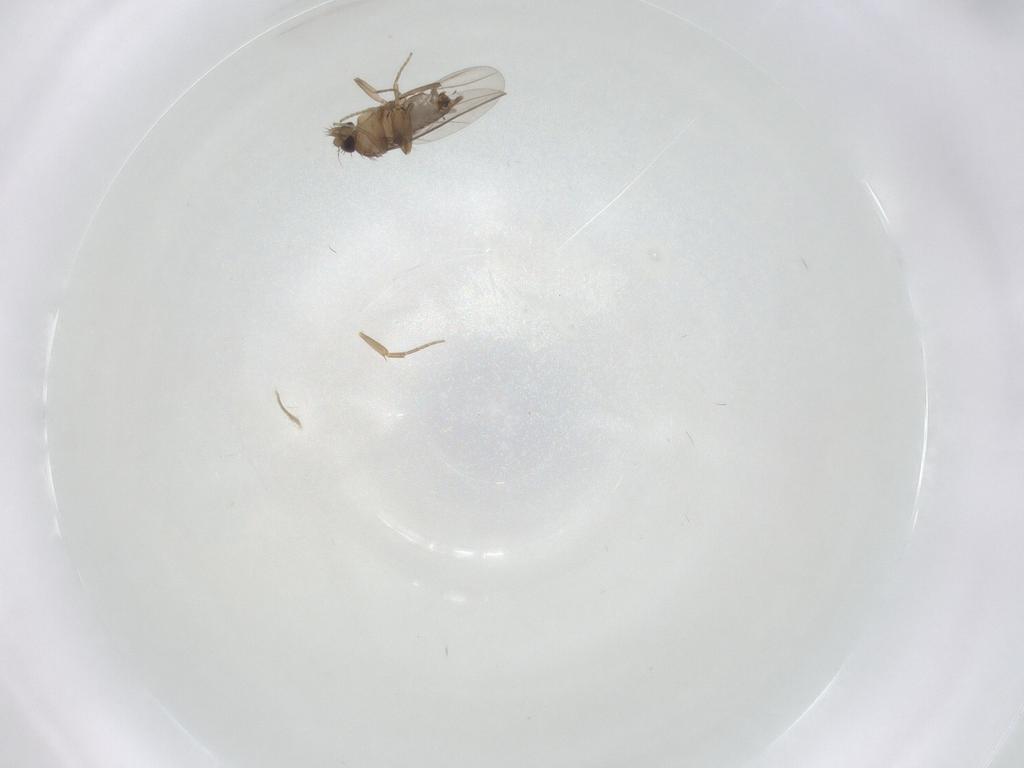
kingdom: Animalia
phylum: Arthropoda
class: Insecta
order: Diptera
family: Phoridae
